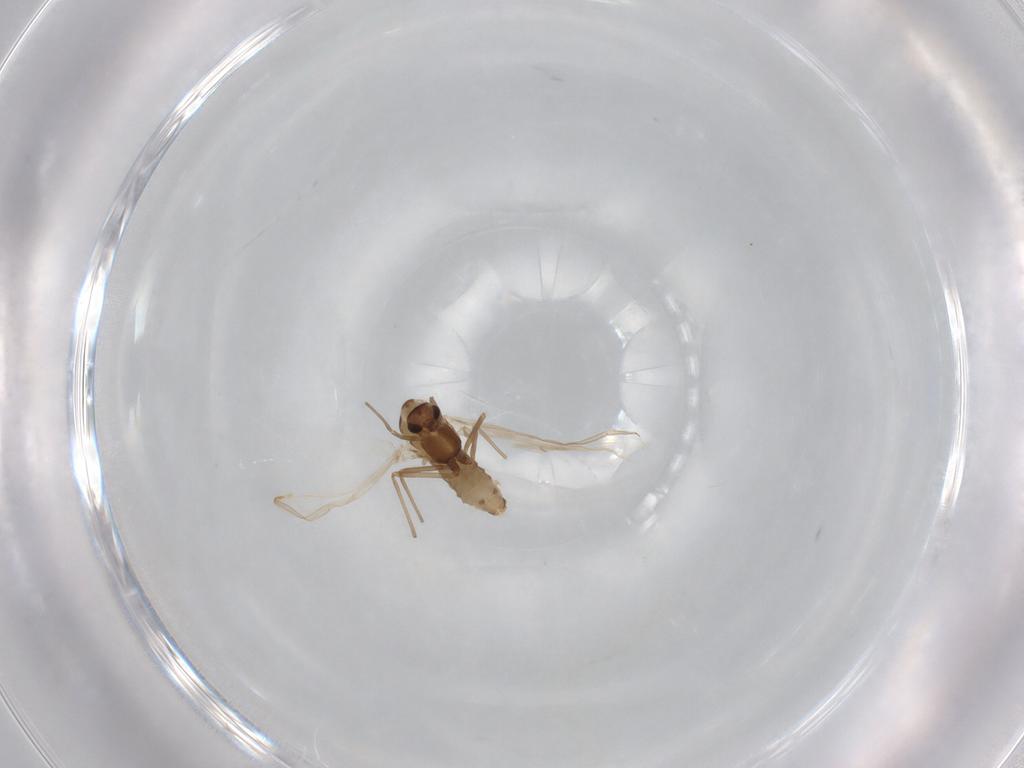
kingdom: Animalia
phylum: Arthropoda
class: Insecta
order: Diptera
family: Chironomidae
